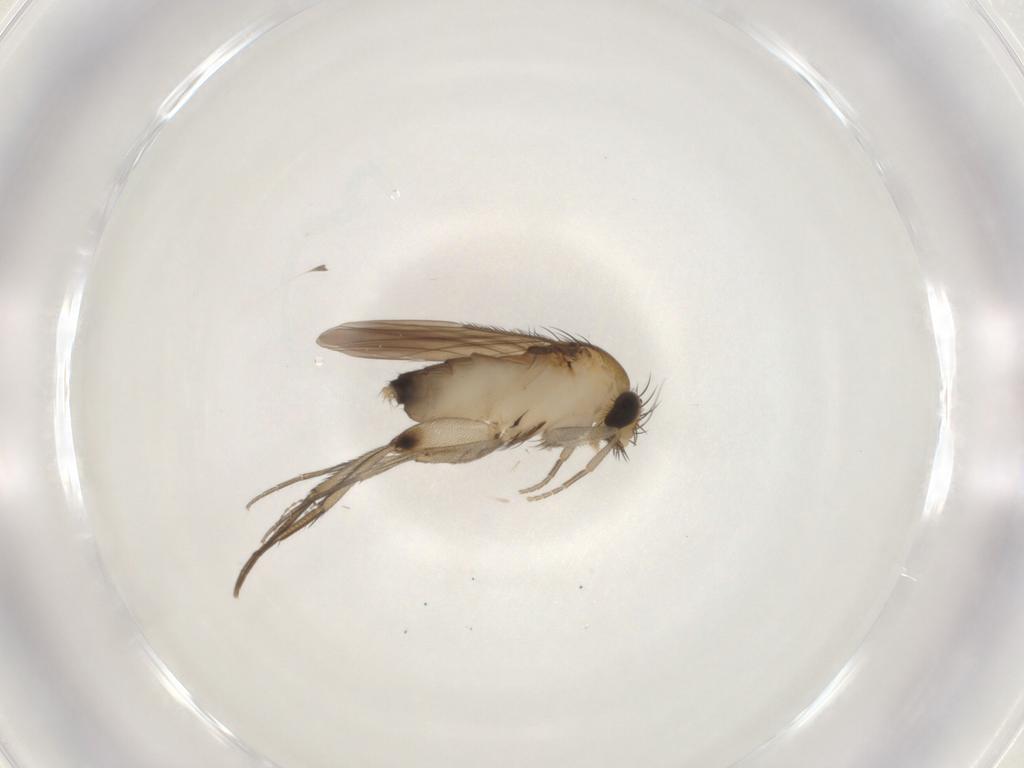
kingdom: Animalia
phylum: Arthropoda
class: Insecta
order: Diptera
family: Phoridae
